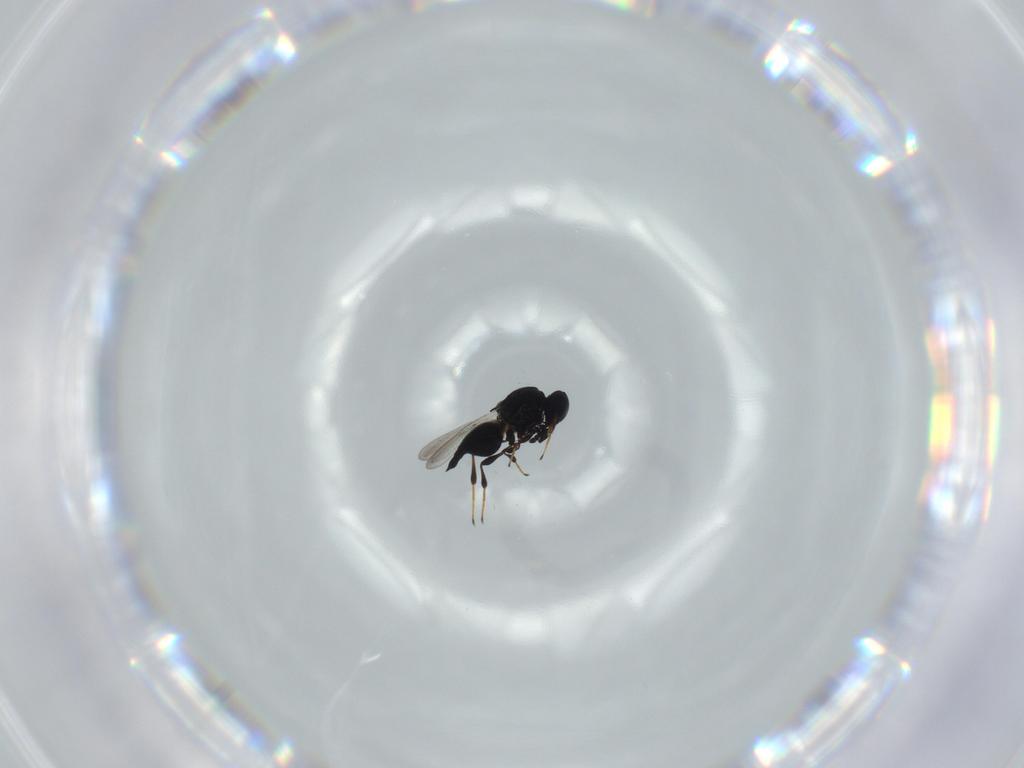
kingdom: Animalia
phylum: Arthropoda
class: Insecta
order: Hymenoptera
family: Platygastridae
